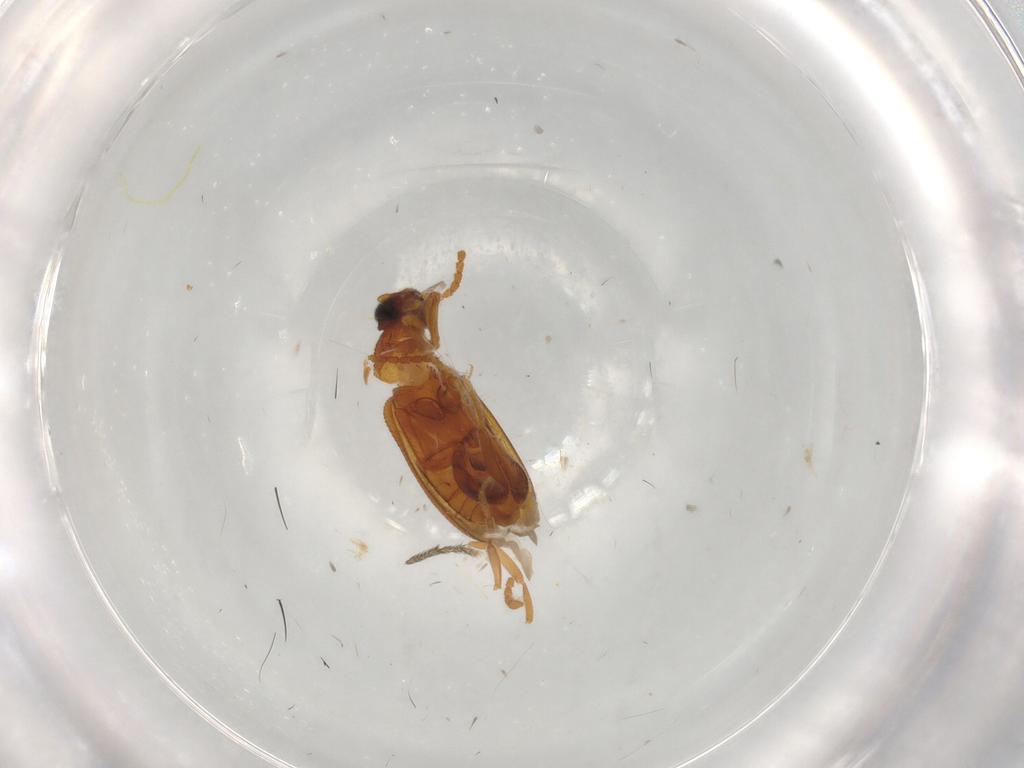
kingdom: Animalia
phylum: Arthropoda
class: Insecta
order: Coleoptera
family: Aderidae
